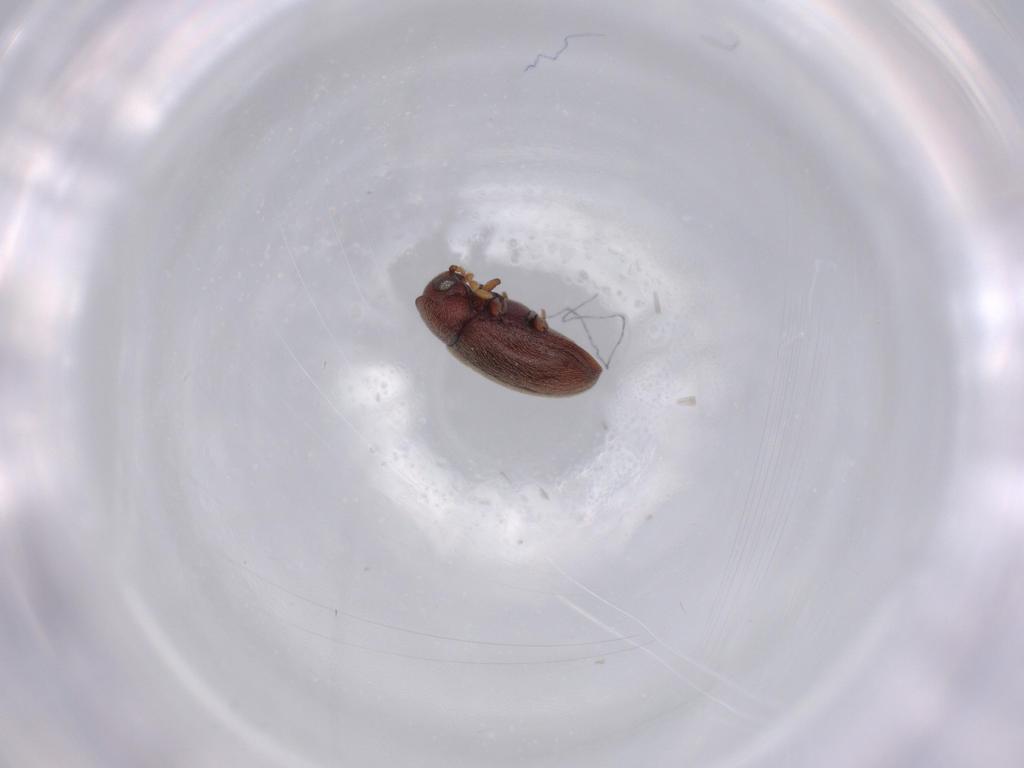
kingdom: Animalia
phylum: Arthropoda
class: Insecta
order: Coleoptera
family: Ptinidae
